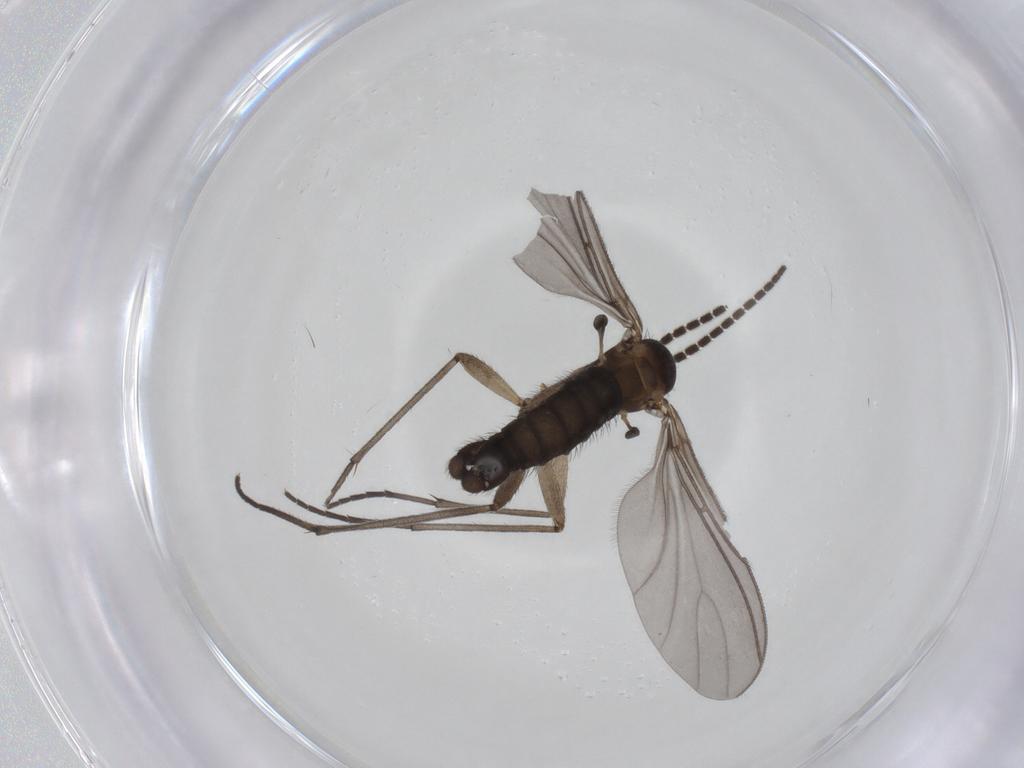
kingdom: Animalia
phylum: Arthropoda
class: Insecta
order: Diptera
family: Sciaridae
